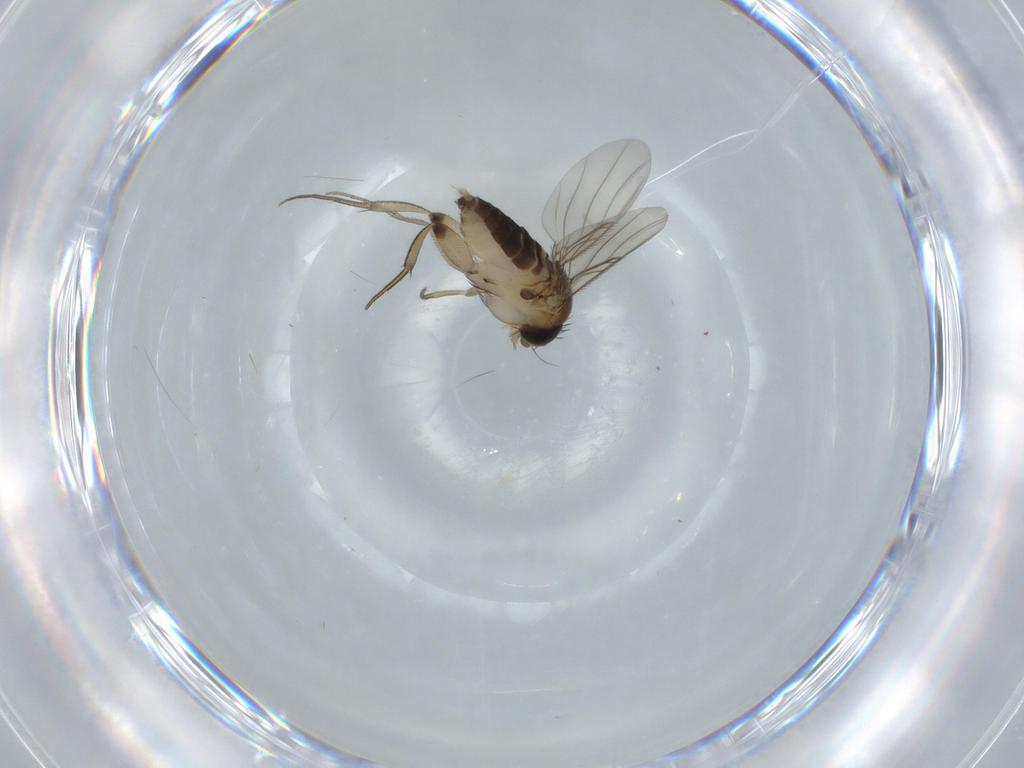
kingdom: Animalia
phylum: Arthropoda
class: Insecta
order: Diptera
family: Phoridae
